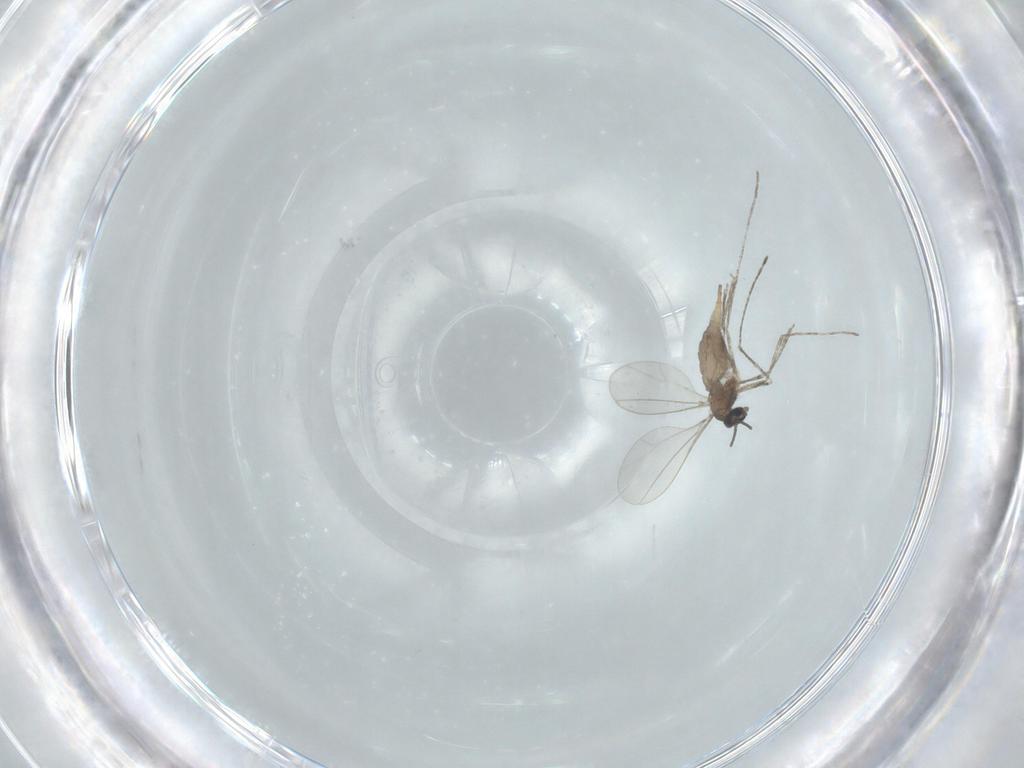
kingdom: Animalia
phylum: Arthropoda
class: Insecta
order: Diptera
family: Cecidomyiidae
